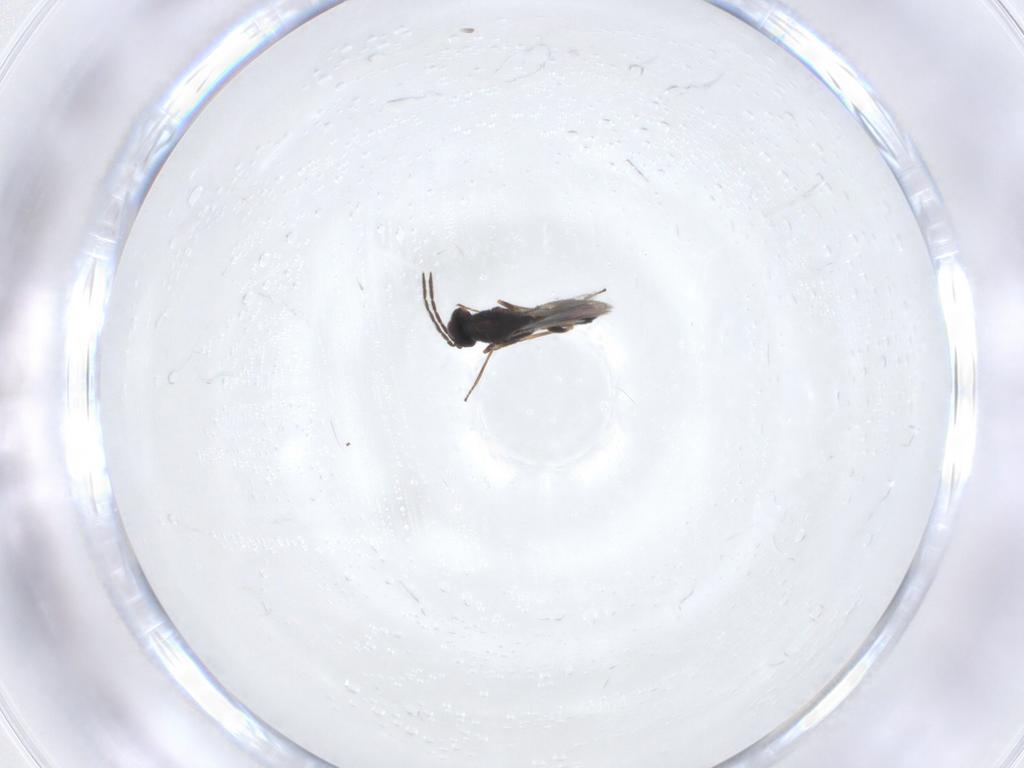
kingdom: Animalia
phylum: Arthropoda
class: Insecta
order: Hymenoptera
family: Eulophidae
